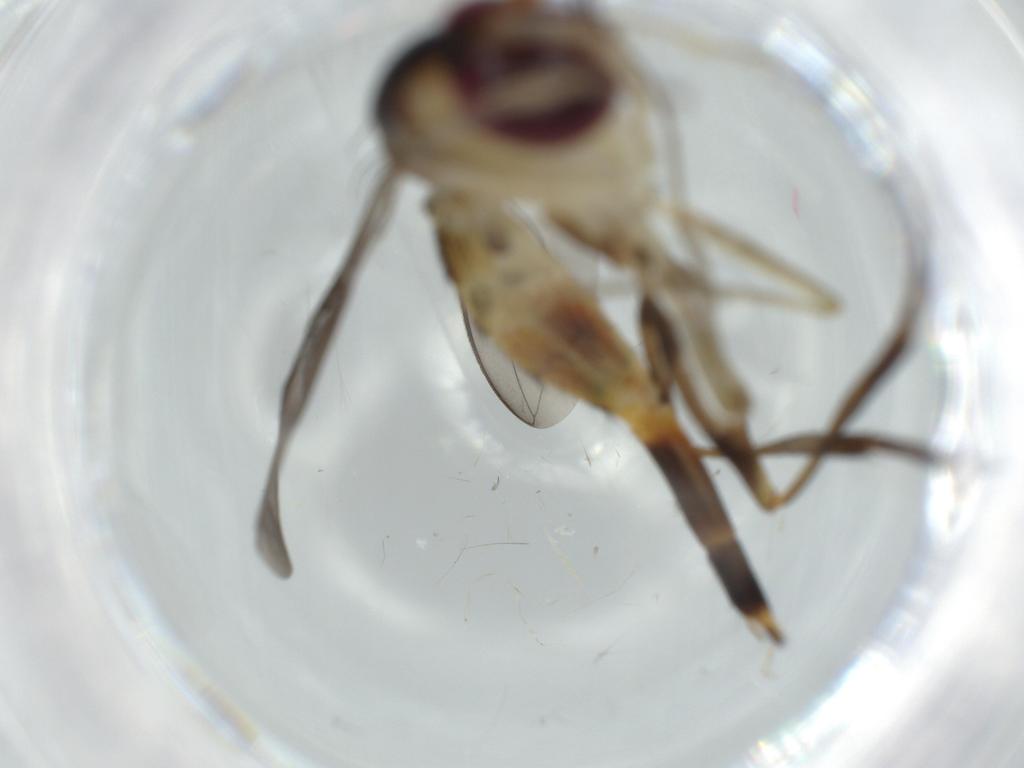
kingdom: Animalia
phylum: Arthropoda
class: Insecta
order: Diptera
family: Conopidae
